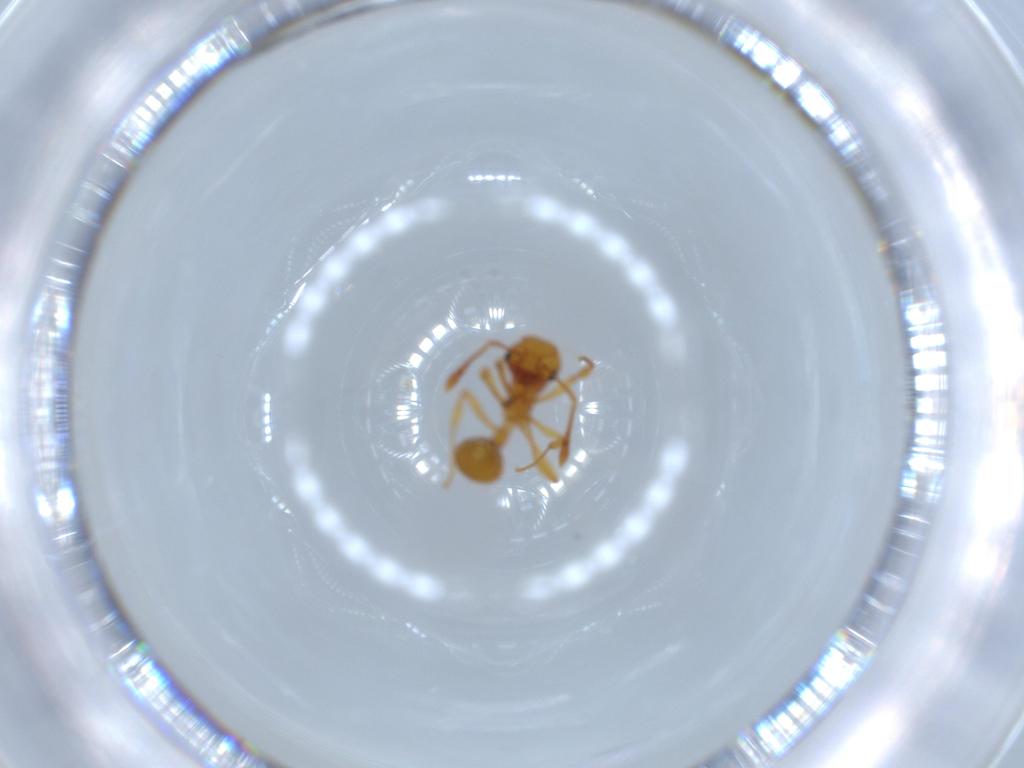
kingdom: Animalia
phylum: Arthropoda
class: Insecta
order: Hymenoptera
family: Formicidae
